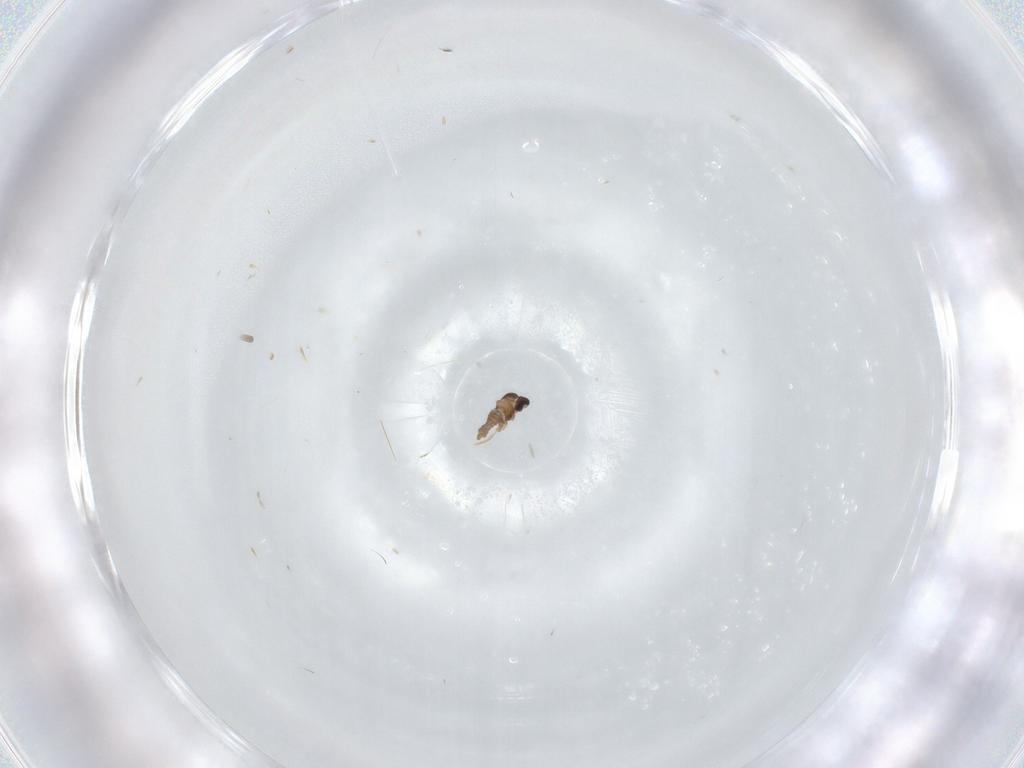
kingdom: Animalia
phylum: Arthropoda
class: Insecta
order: Diptera
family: Cecidomyiidae
